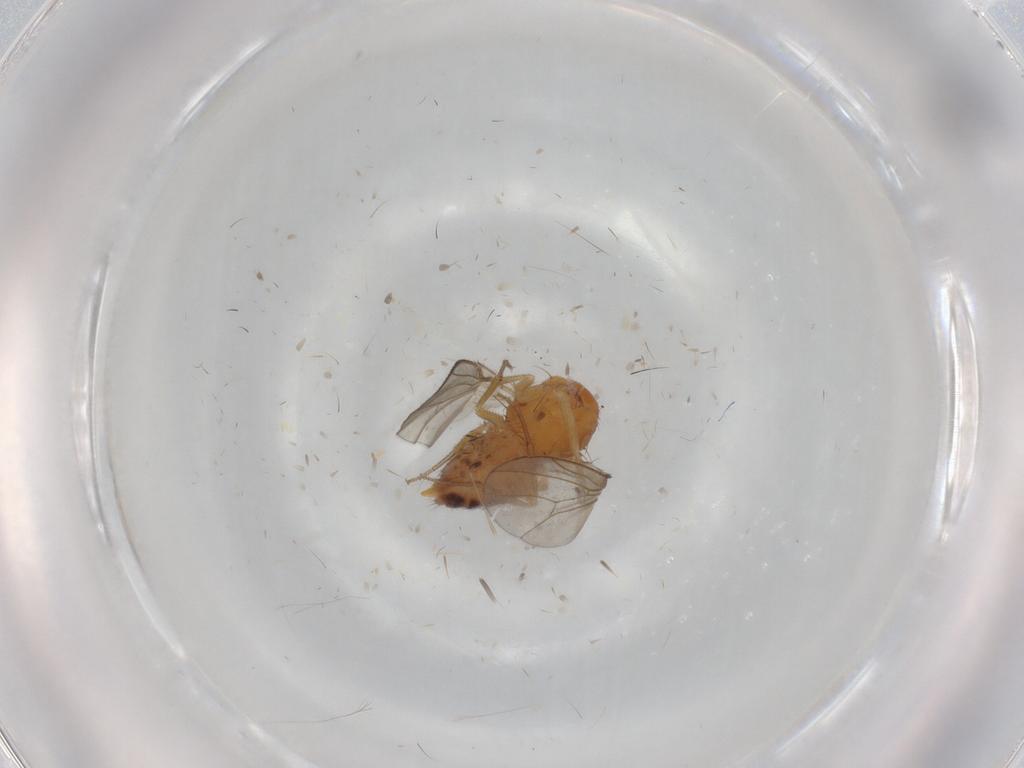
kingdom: Animalia
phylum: Arthropoda
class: Insecta
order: Diptera
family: Drosophilidae
